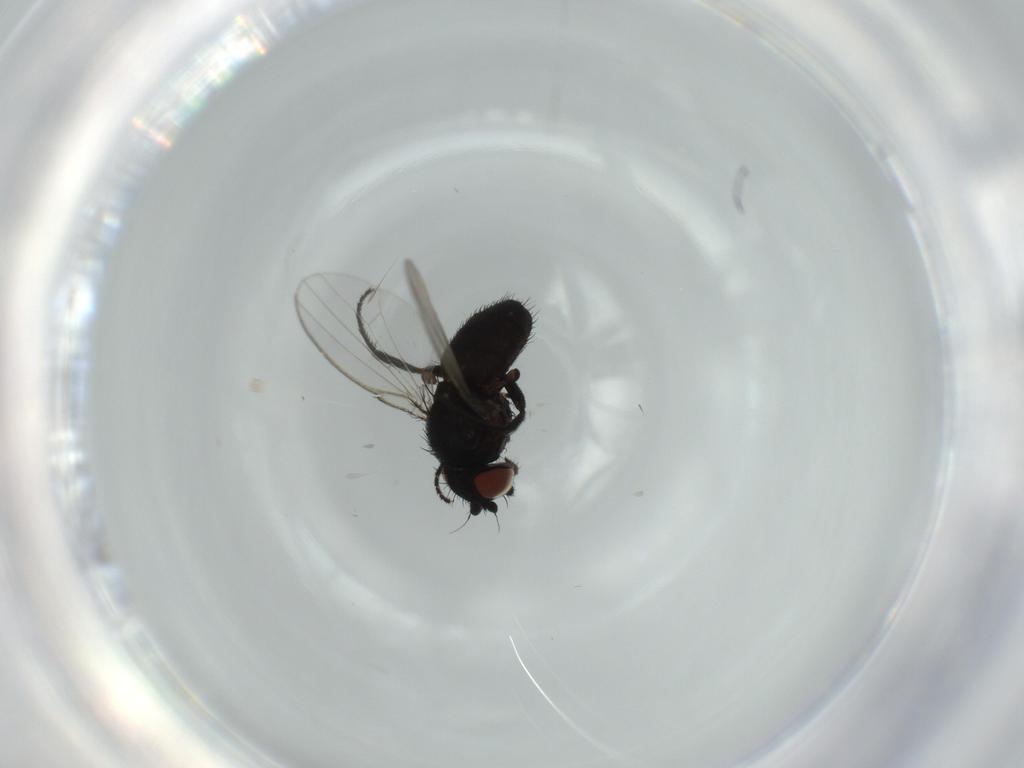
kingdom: Animalia
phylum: Arthropoda
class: Insecta
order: Diptera
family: Milichiidae
